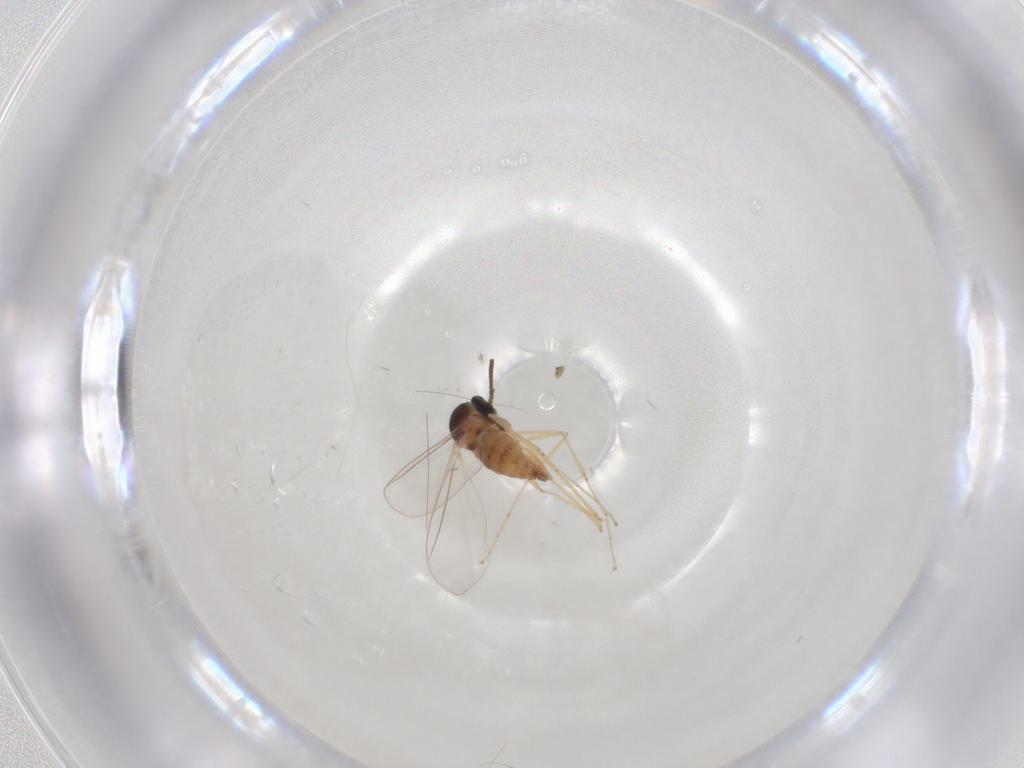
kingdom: Animalia
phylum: Arthropoda
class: Insecta
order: Diptera
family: Cecidomyiidae
